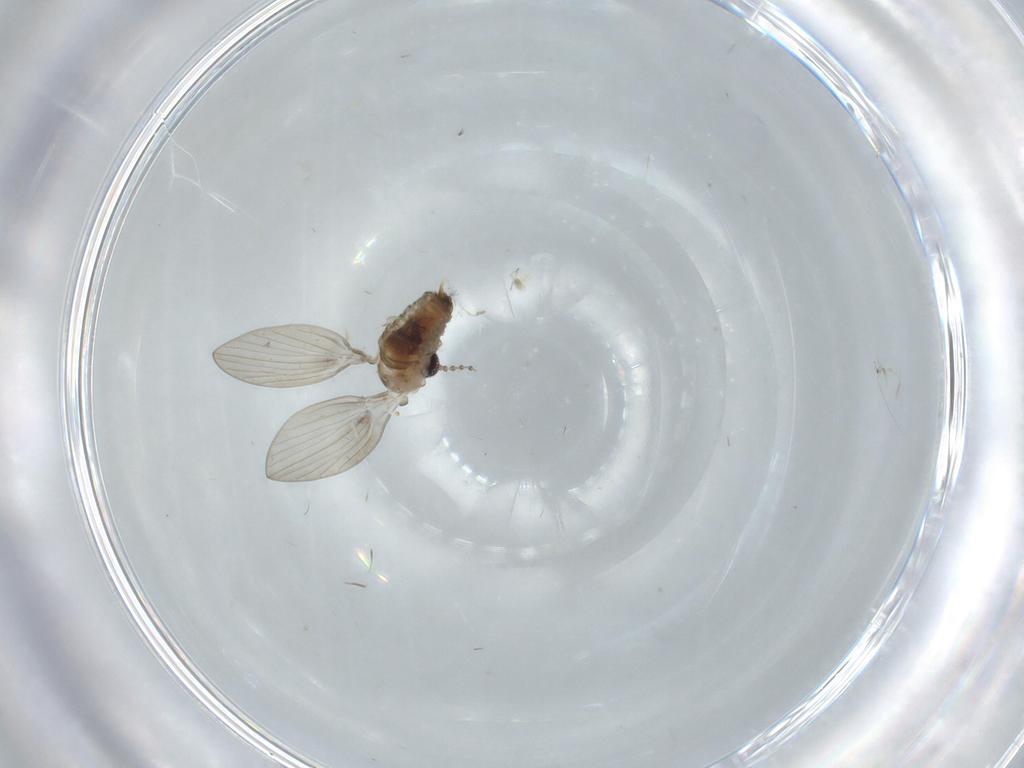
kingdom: Animalia
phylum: Arthropoda
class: Insecta
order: Diptera
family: Psychodidae
